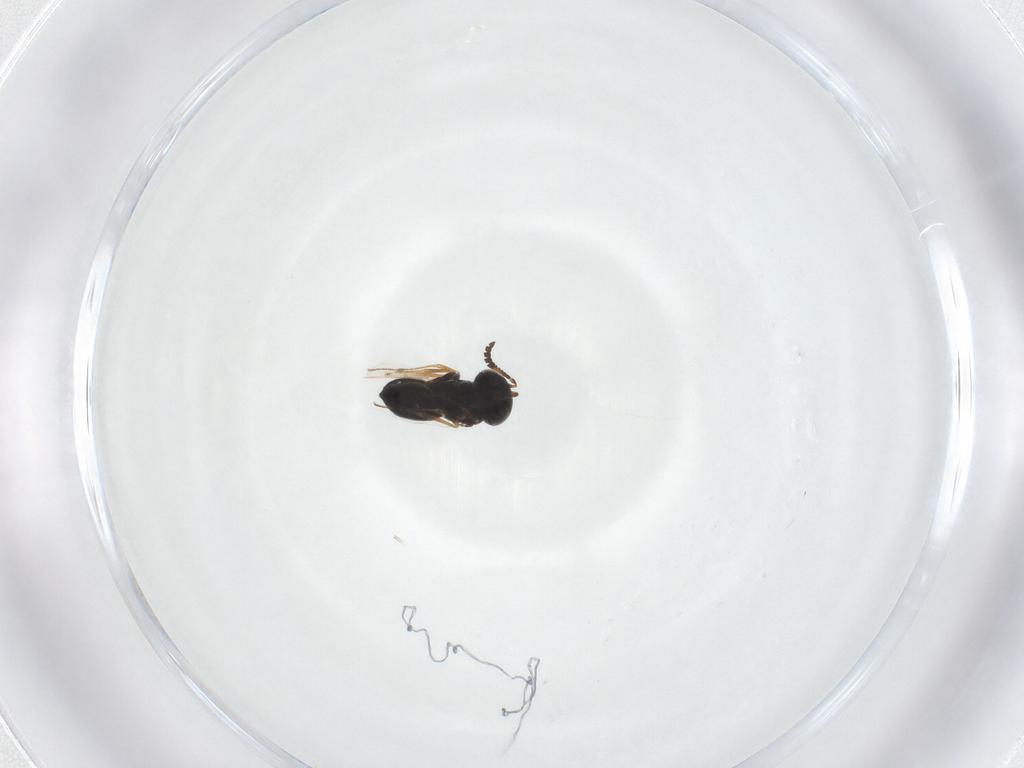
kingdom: Animalia
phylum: Arthropoda
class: Insecta
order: Hymenoptera
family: Scelionidae
